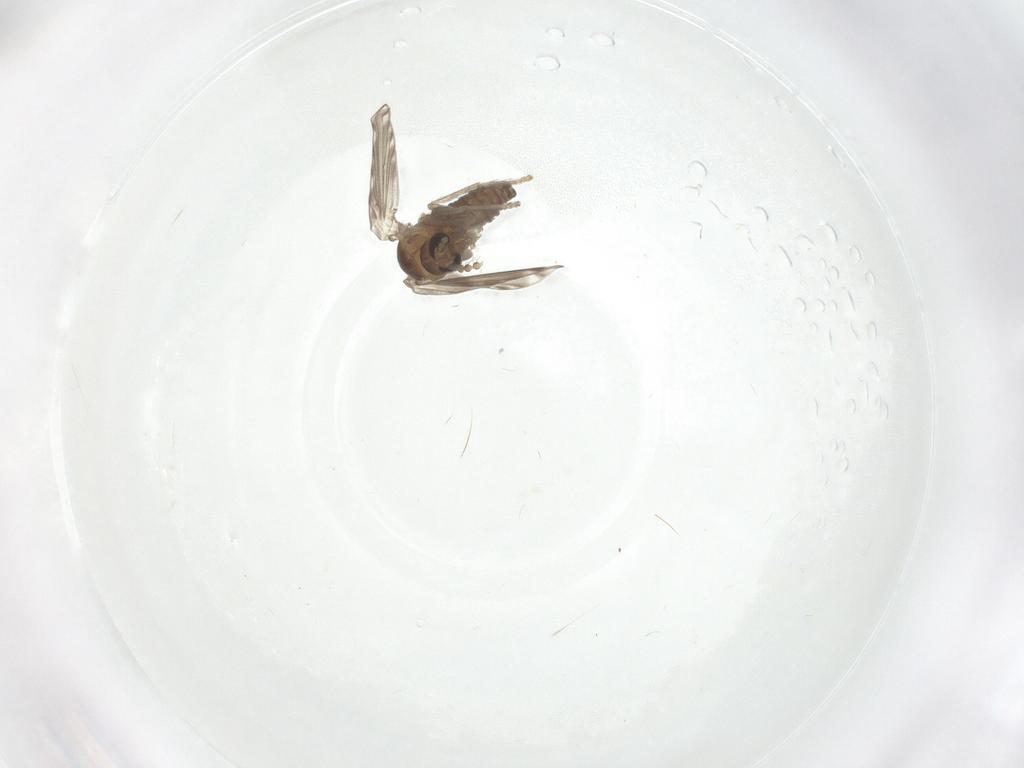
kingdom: Animalia
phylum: Arthropoda
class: Insecta
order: Diptera
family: Psychodidae
